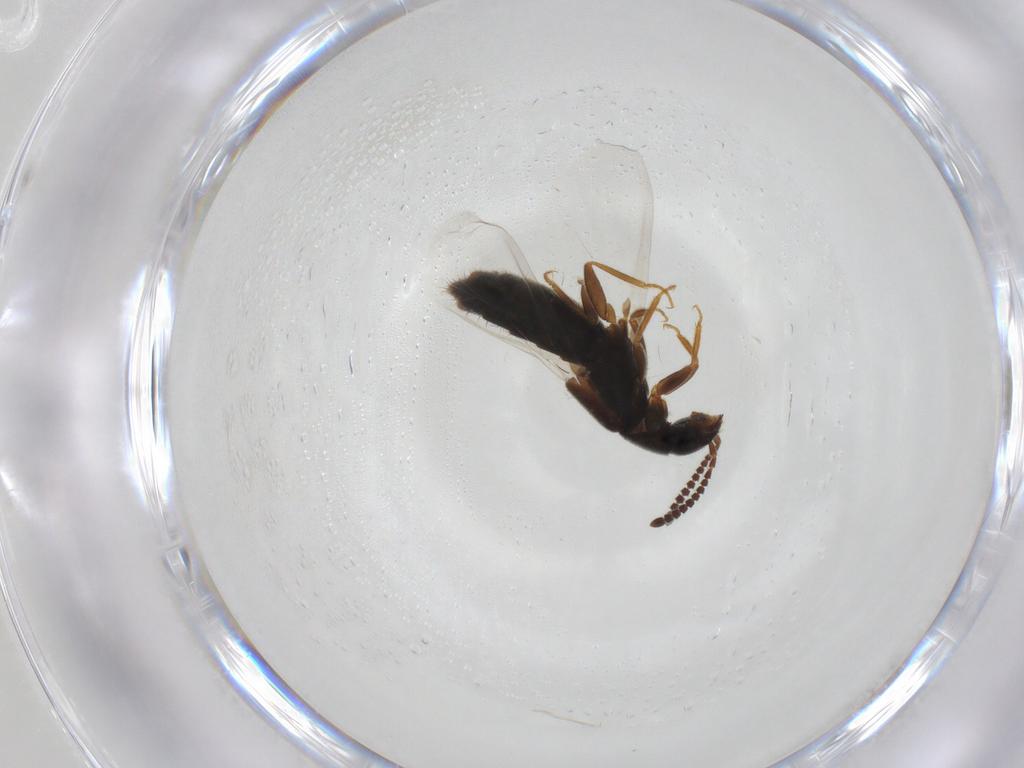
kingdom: Animalia
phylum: Arthropoda
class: Insecta
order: Coleoptera
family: Staphylinidae
